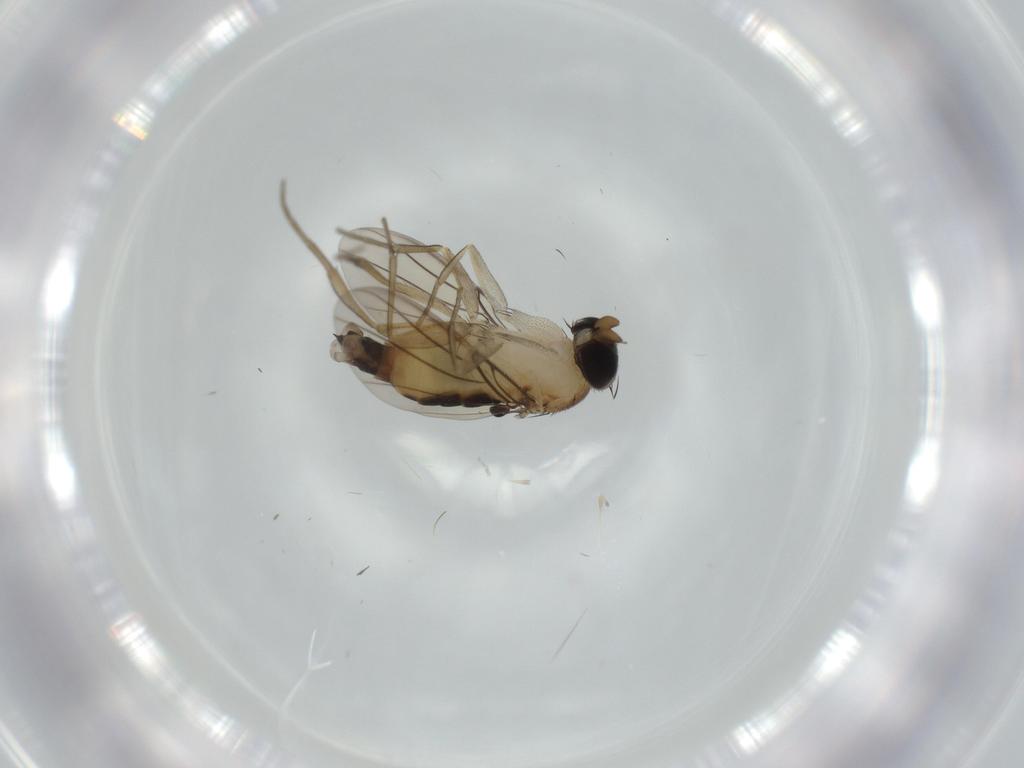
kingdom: Animalia
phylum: Arthropoda
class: Insecta
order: Diptera
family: Phoridae
